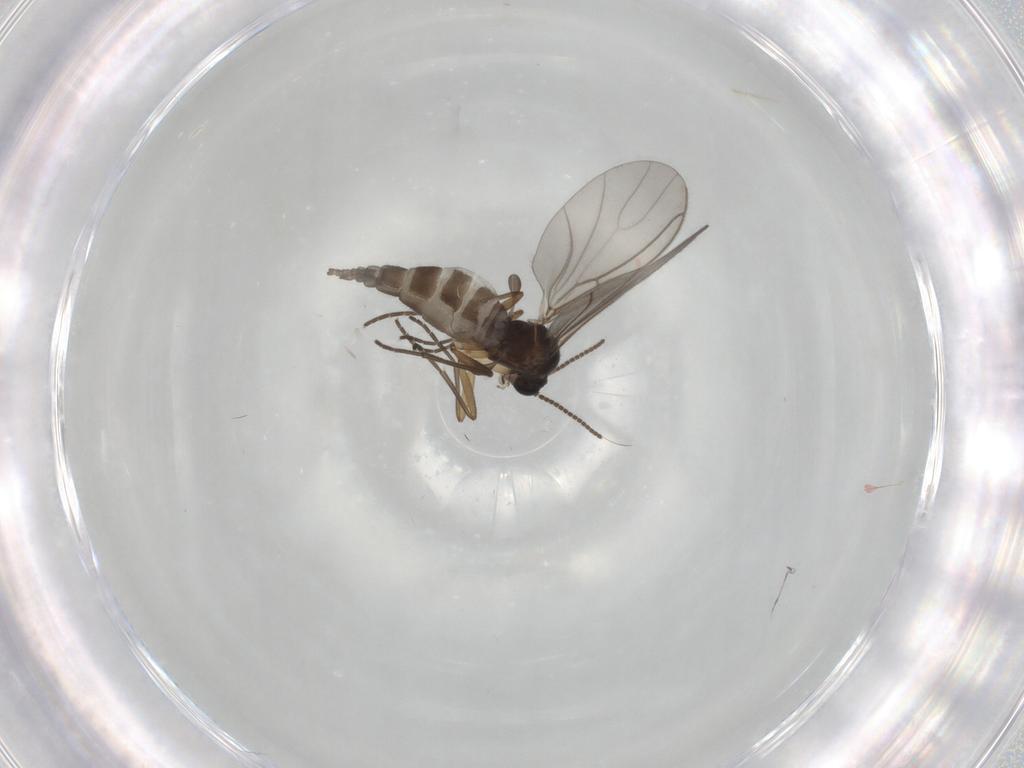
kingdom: Animalia
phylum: Arthropoda
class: Insecta
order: Diptera
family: Sciaridae
